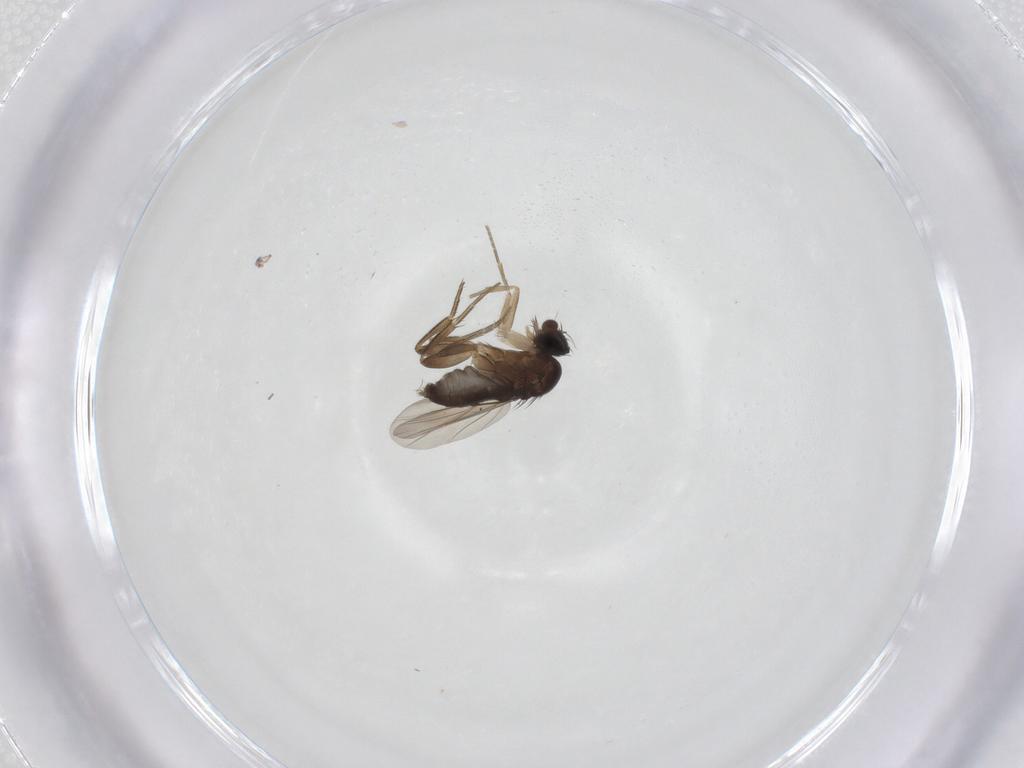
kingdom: Animalia
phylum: Arthropoda
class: Insecta
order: Diptera
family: Phoridae
